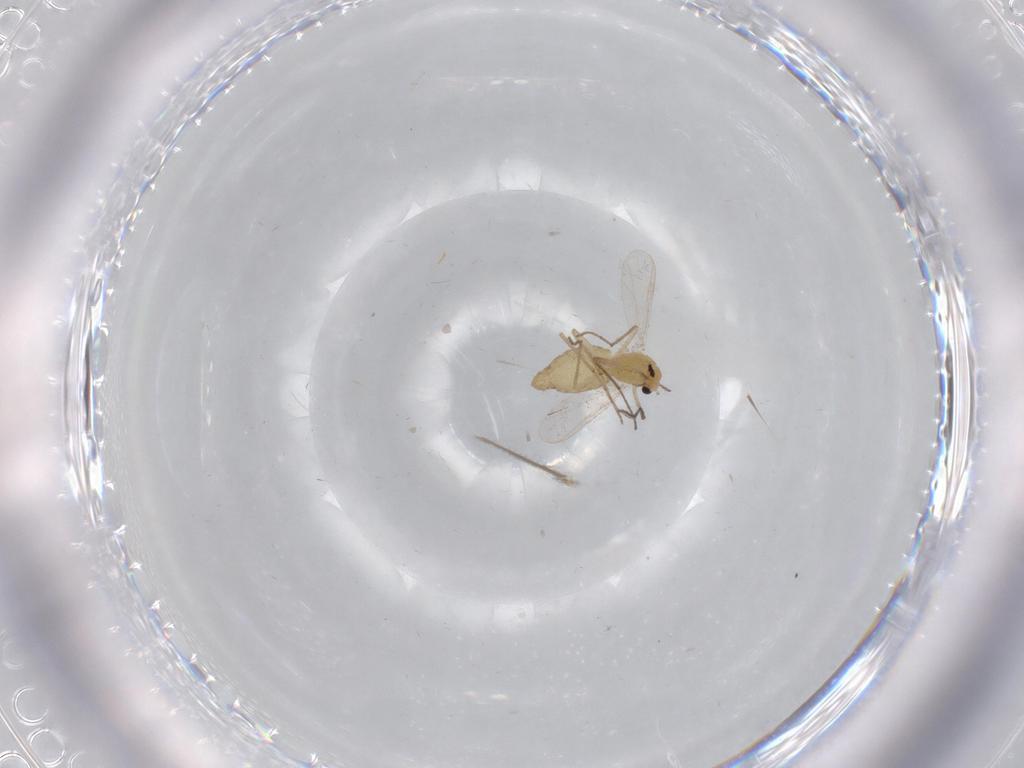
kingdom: Animalia
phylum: Arthropoda
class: Insecta
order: Diptera
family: Chironomidae
